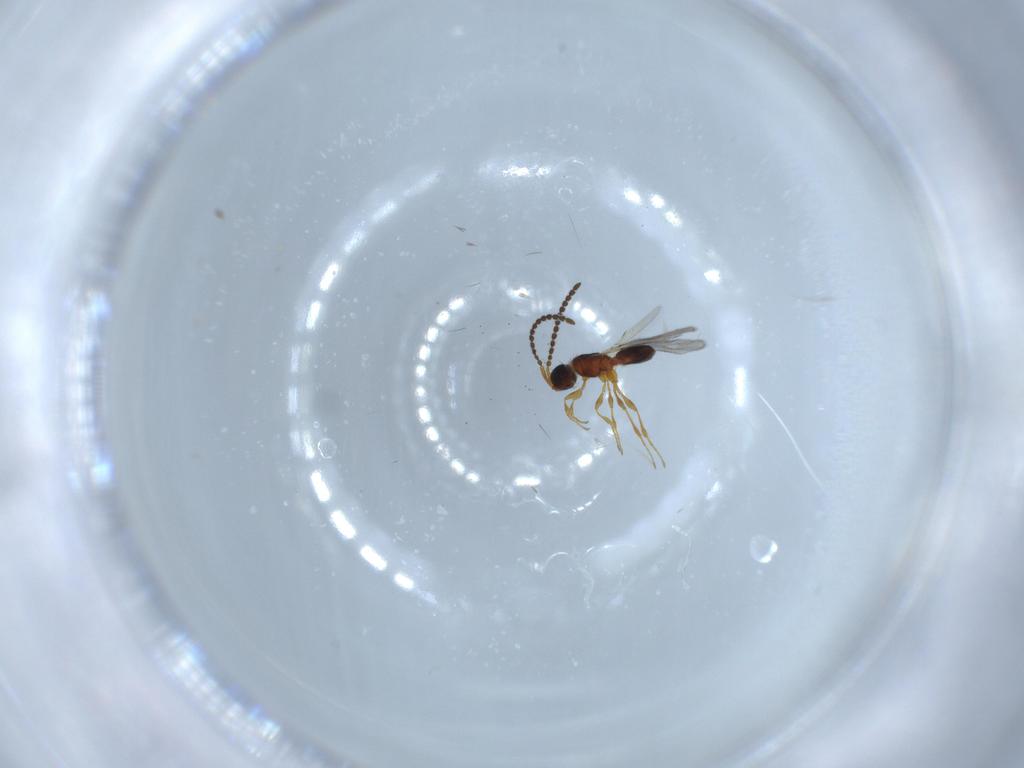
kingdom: Animalia
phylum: Arthropoda
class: Insecta
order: Hymenoptera
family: Diapriidae
